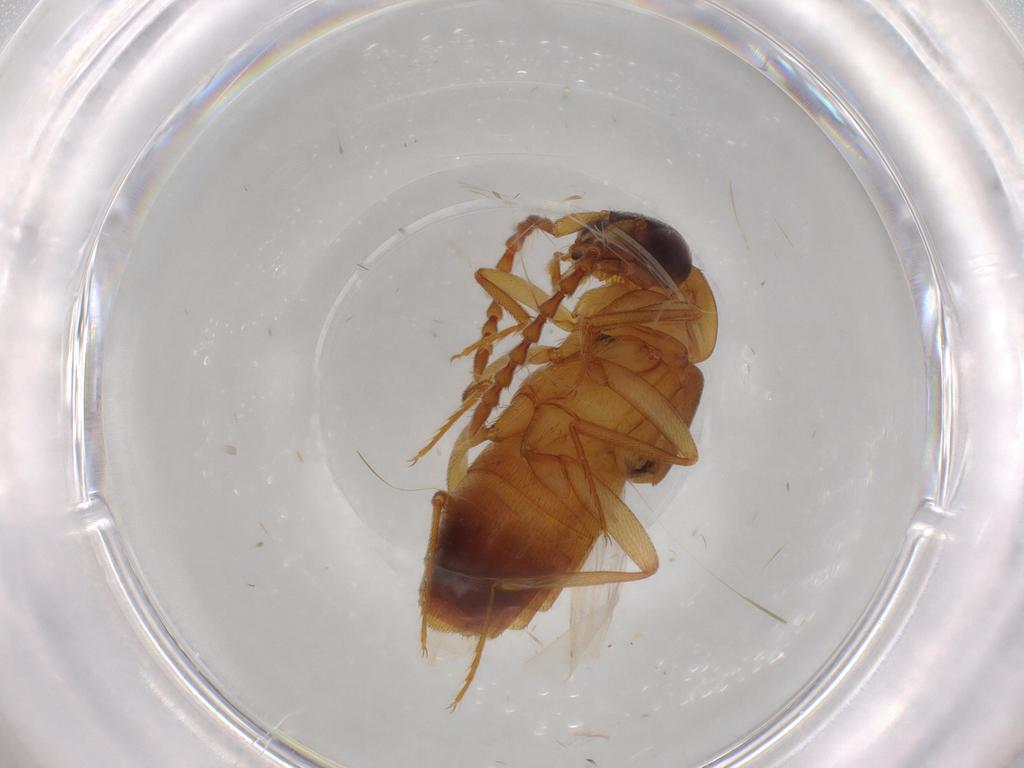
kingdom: Animalia
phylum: Arthropoda
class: Insecta
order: Coleoptera
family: Staphylinidae
